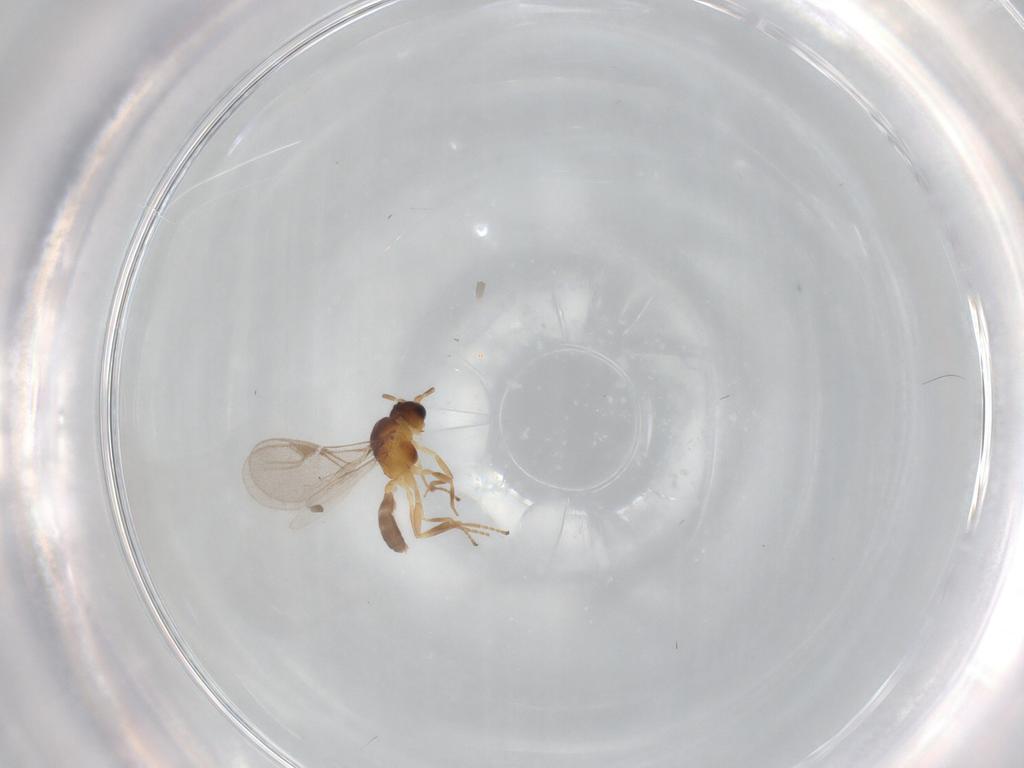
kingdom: Animalia
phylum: Arthropoda
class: Insecta
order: Hymenoptera
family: Braconidae
